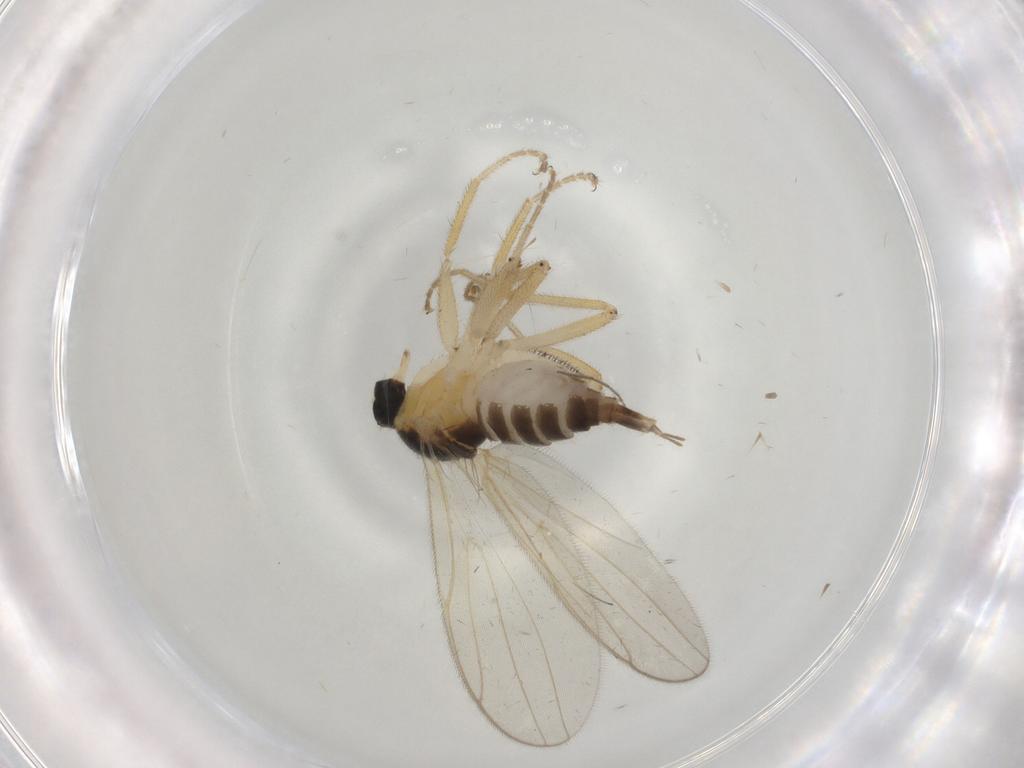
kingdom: Animalia
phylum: Arthropoda
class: Insecta
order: Diptera
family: Hybotidae
